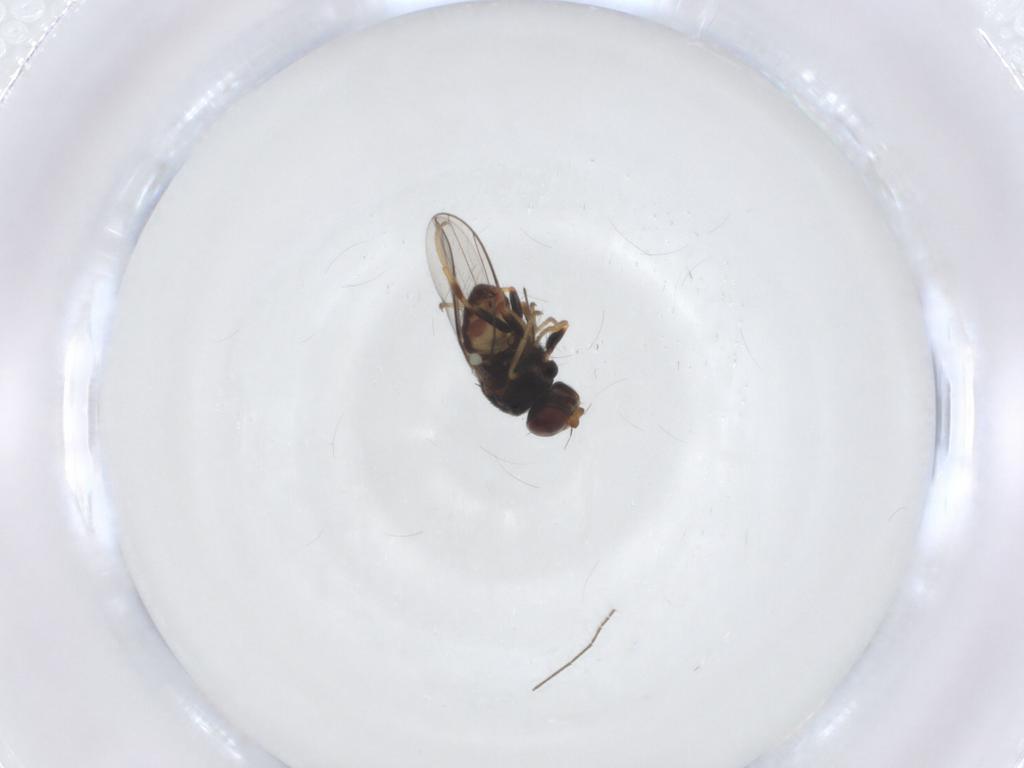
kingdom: Animalia
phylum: Arthropoda
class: Insecta
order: Diptera
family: Chloropidae
